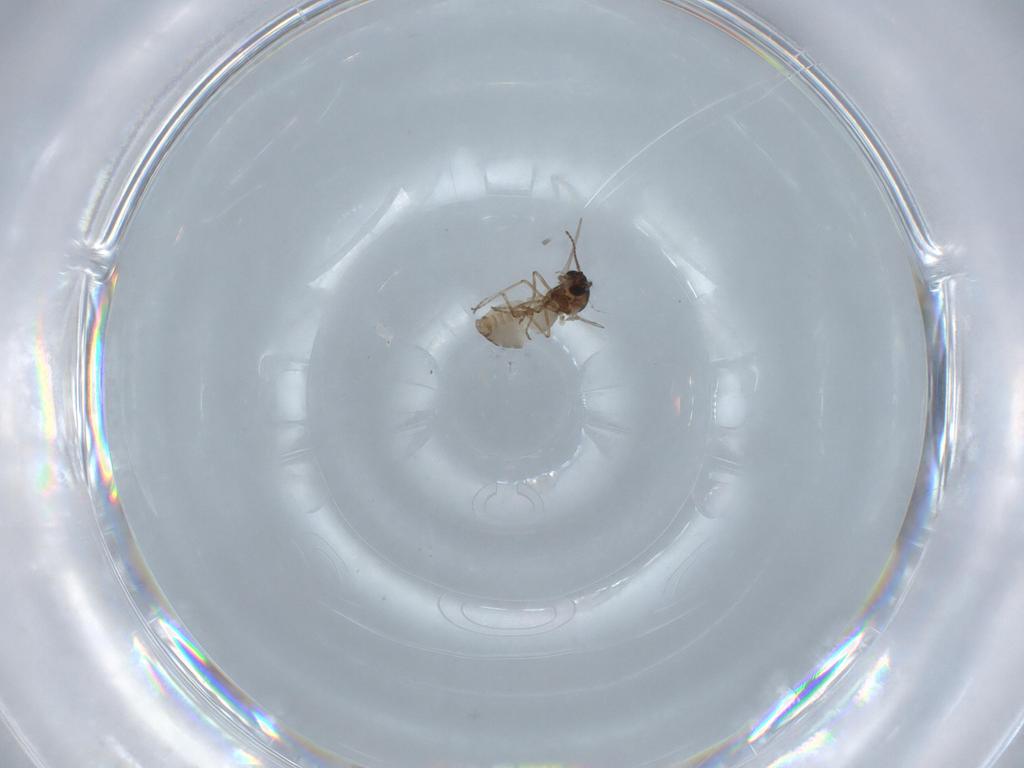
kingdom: Animalia
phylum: Arthropoda
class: Insecta
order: Diptera
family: Ceratopogonidae
